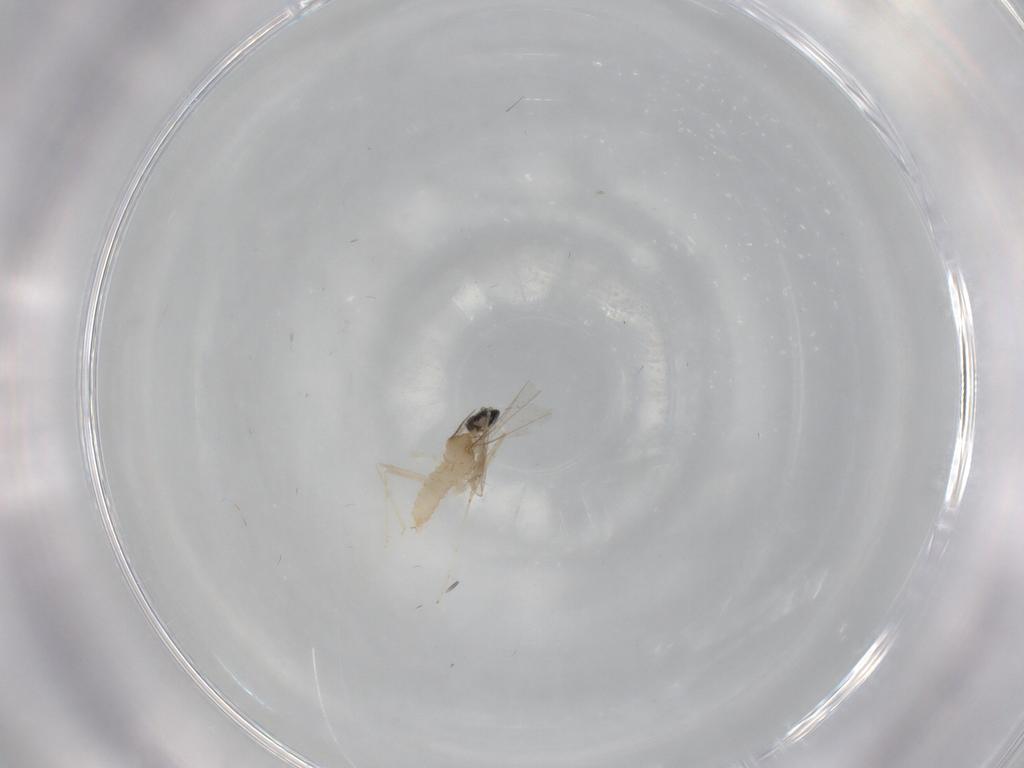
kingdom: Animalia
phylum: Arthropoda
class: Insecta
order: Diptera
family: Cecidomyiidae
